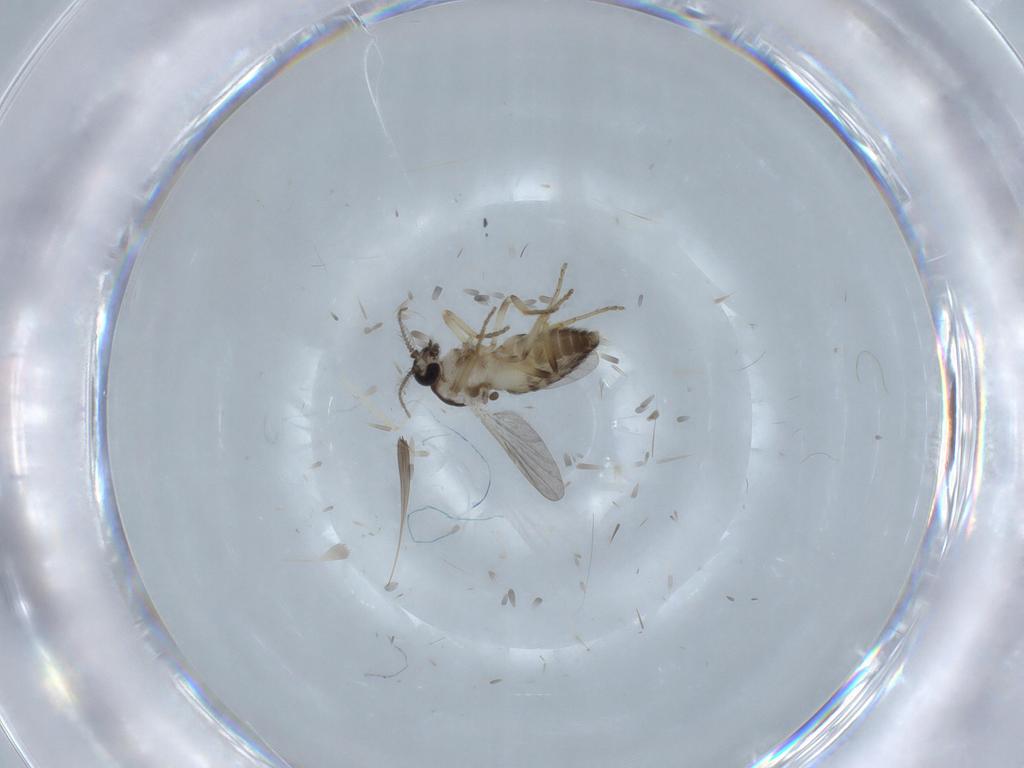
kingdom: Animalia
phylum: Arthropoda
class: Insecta
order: Diptera
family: Ceratopogonidae
